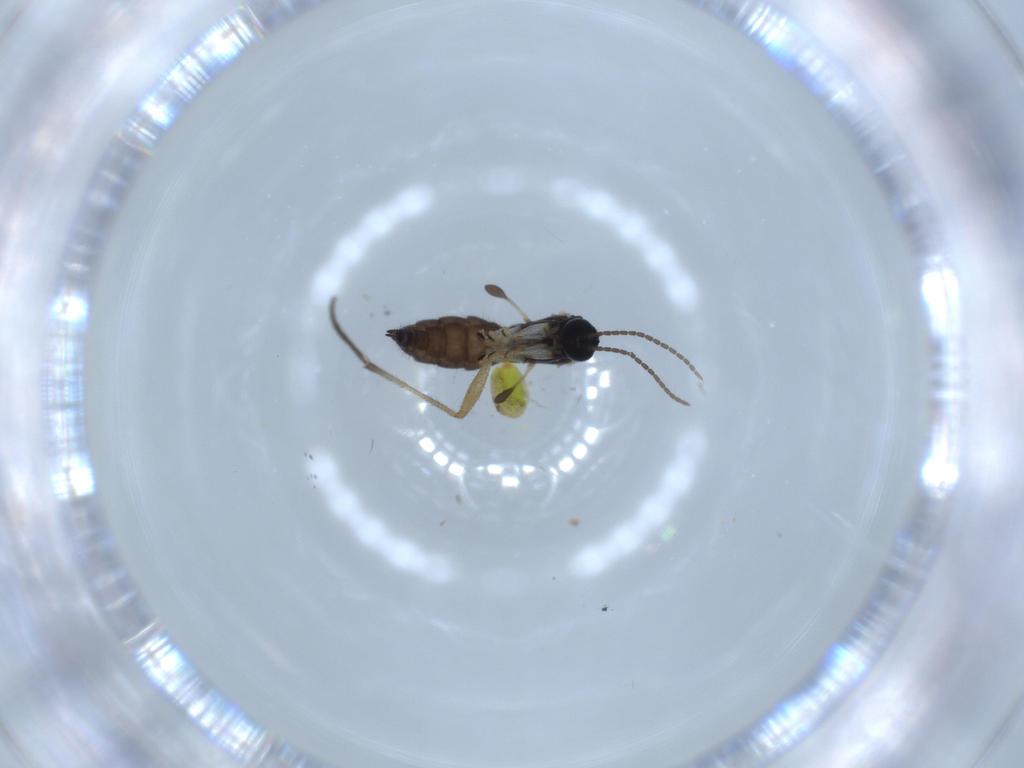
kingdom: Animalia
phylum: Arthropoda
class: Insecta
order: Diptera
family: Sciaridae
